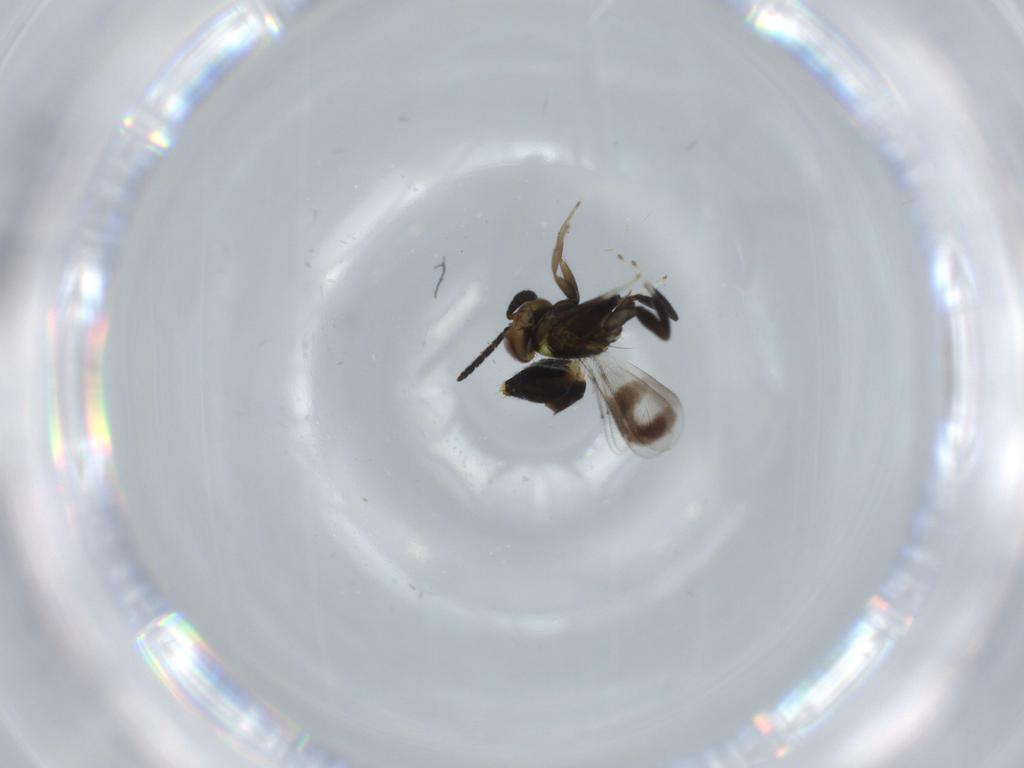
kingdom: Animalia
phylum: Arthropoda
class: Insecta
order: Hymenoptera
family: Aphelinidae
